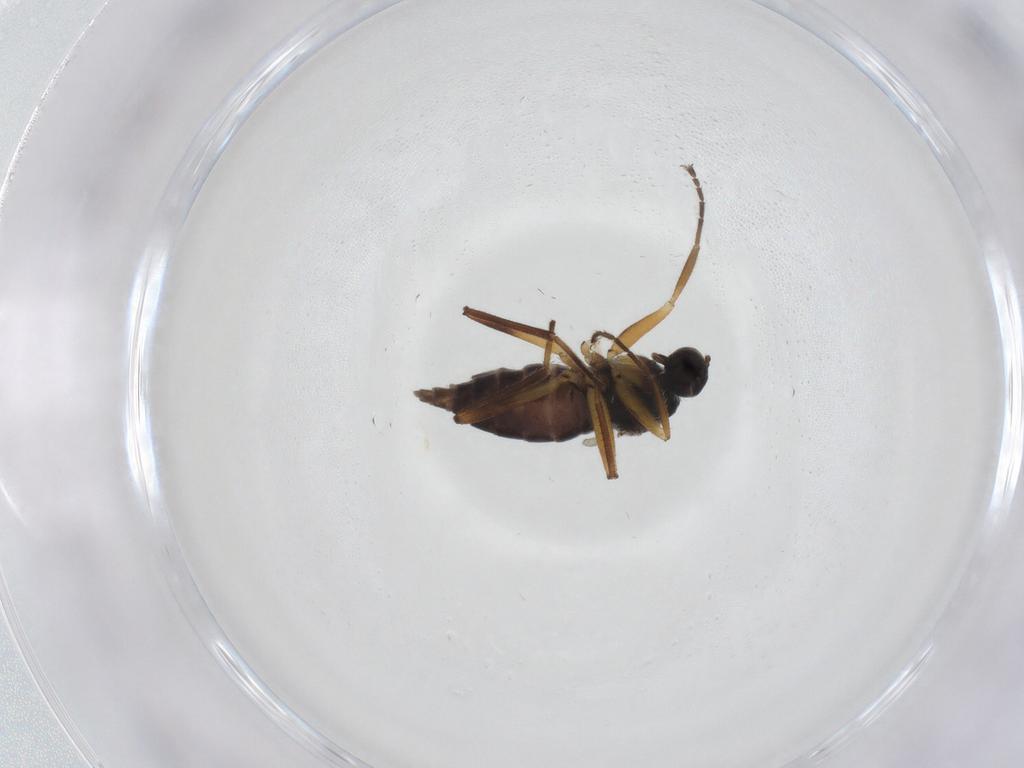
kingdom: Animalia
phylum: Arthropoda
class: Insecta
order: Diptera
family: Hybotidae
